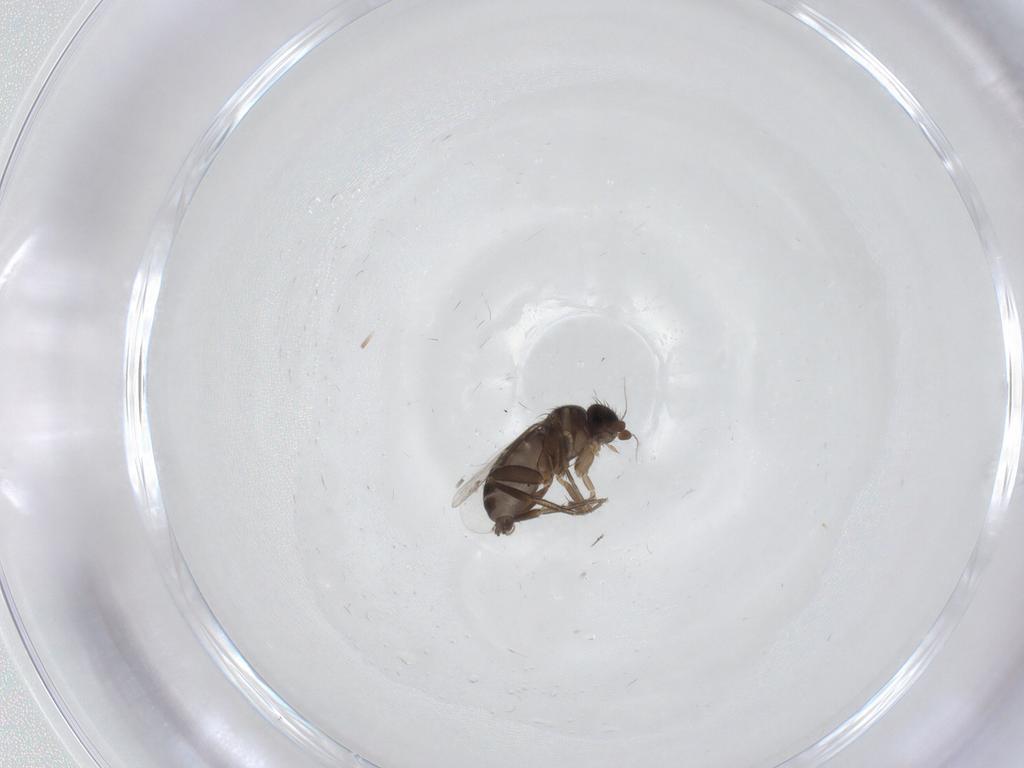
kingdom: Animalia
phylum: Arthropoda
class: Insecta
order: Diptera
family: Phoridae
